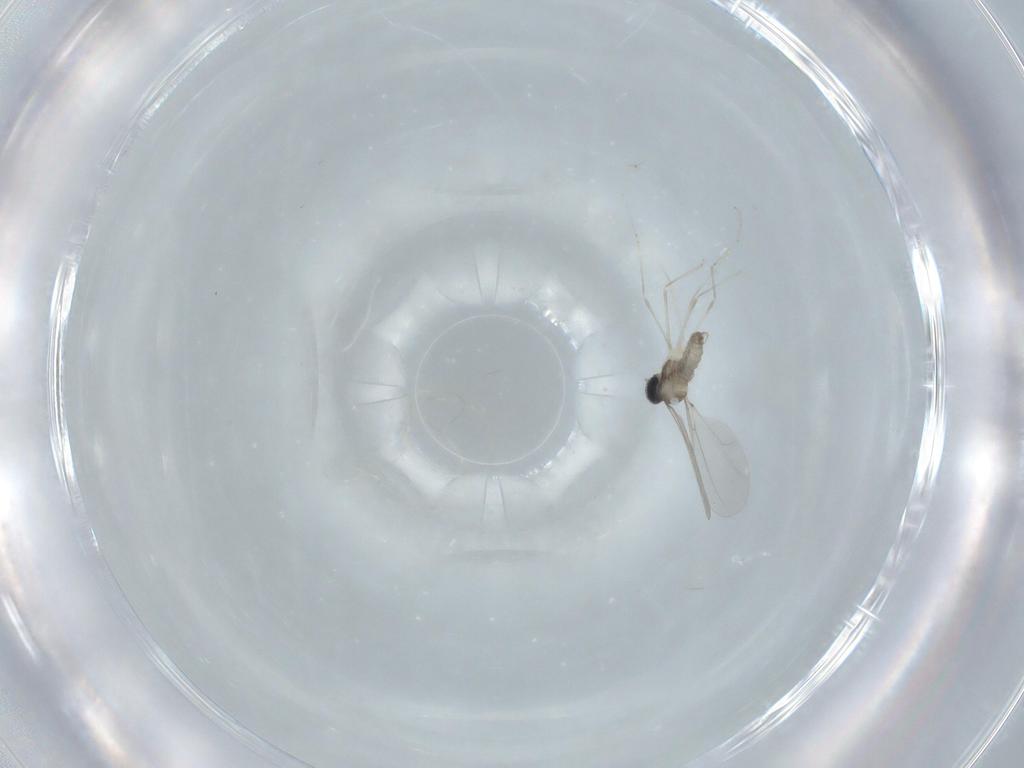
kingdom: Animalia
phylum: Arthropoda
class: Insecta
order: Diptera
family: Cecidomyiidae
